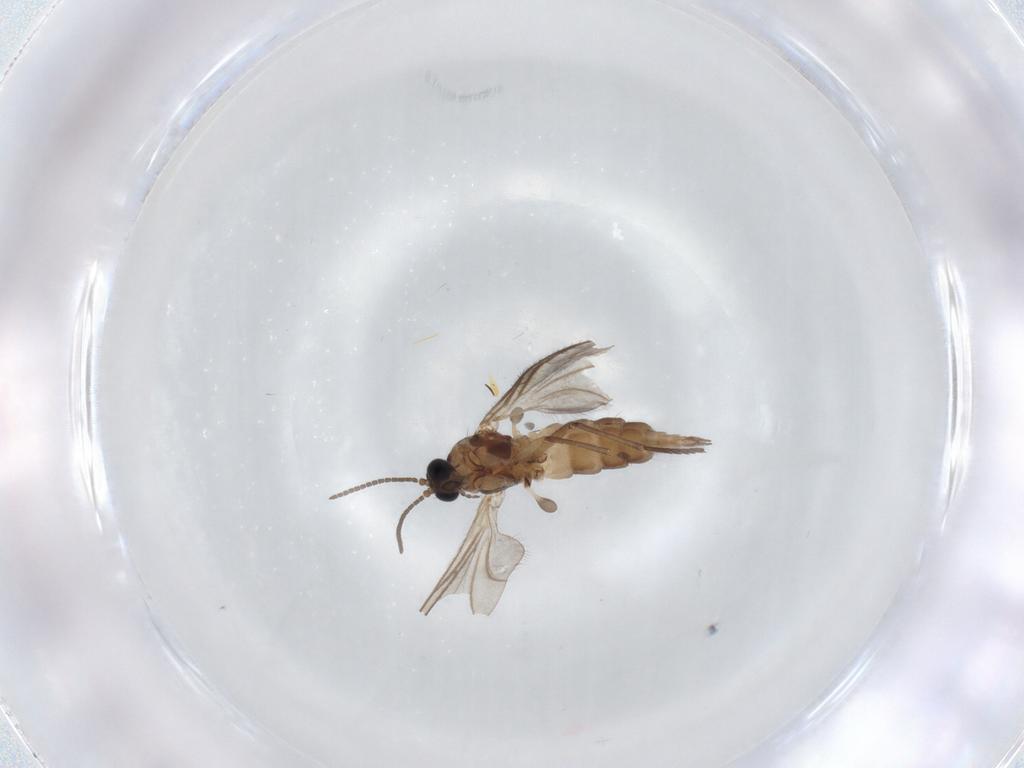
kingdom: Animalia
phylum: Arthropoda
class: Insecta
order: Diptera
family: Sciaridae
